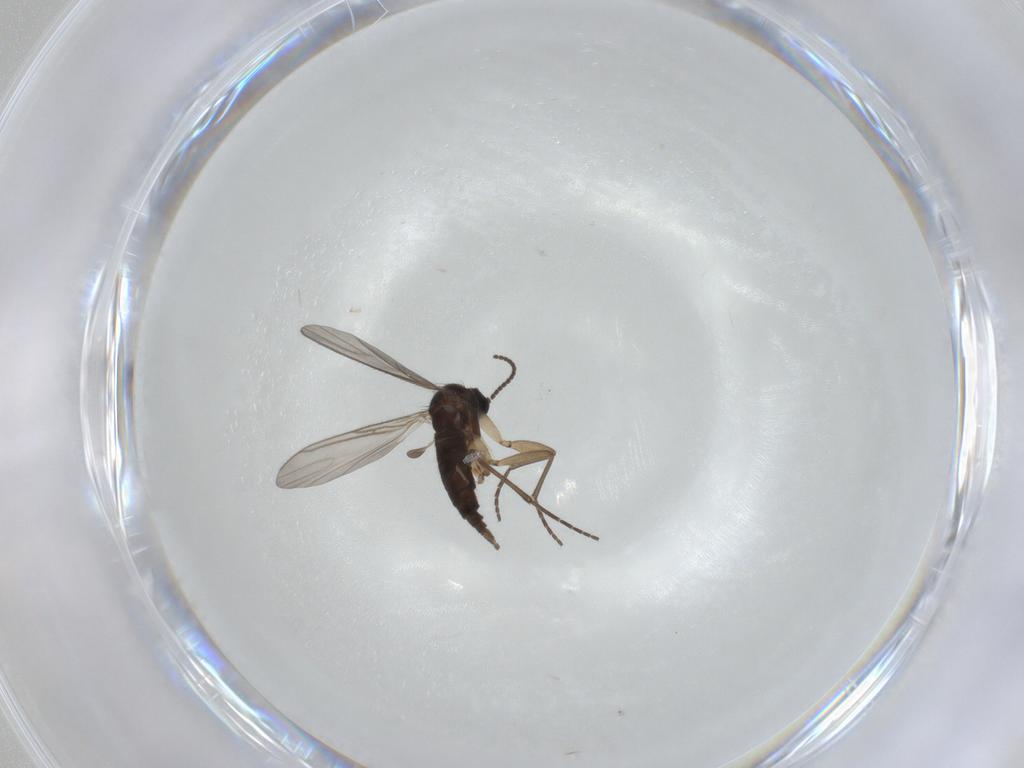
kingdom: Animalia
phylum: Arthropoda
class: Insecta
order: Diptera
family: Sciaridae
